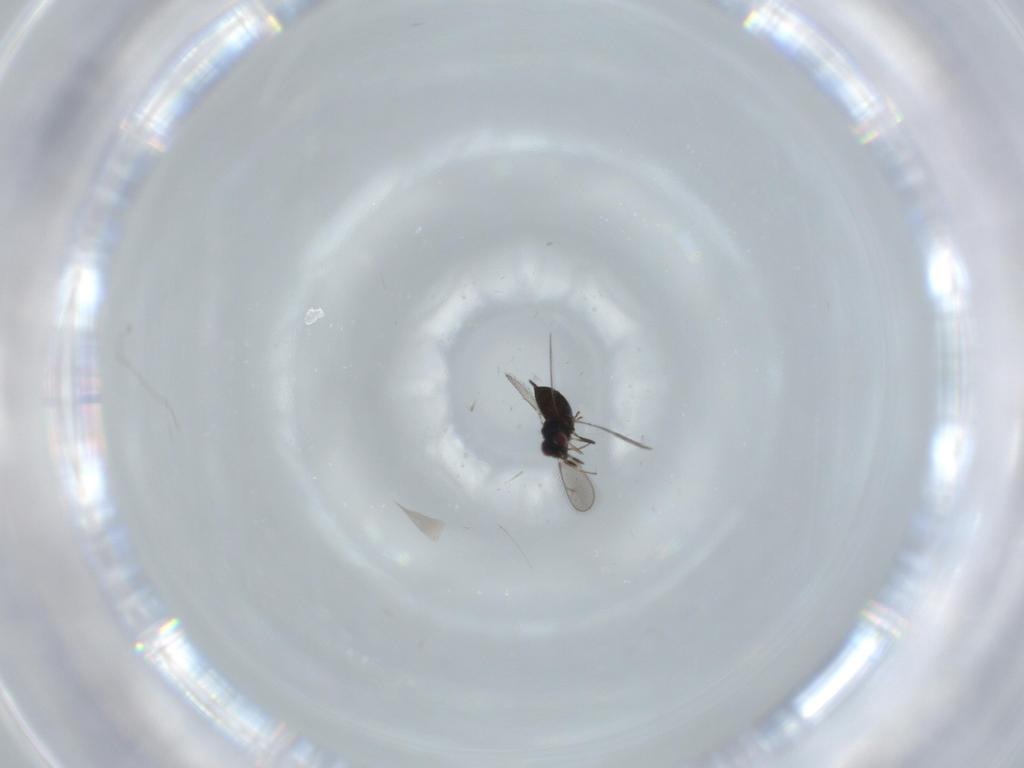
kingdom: Animalia
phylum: Arthropoda
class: Insecta
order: Hymenoptera
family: Pteromalidae
